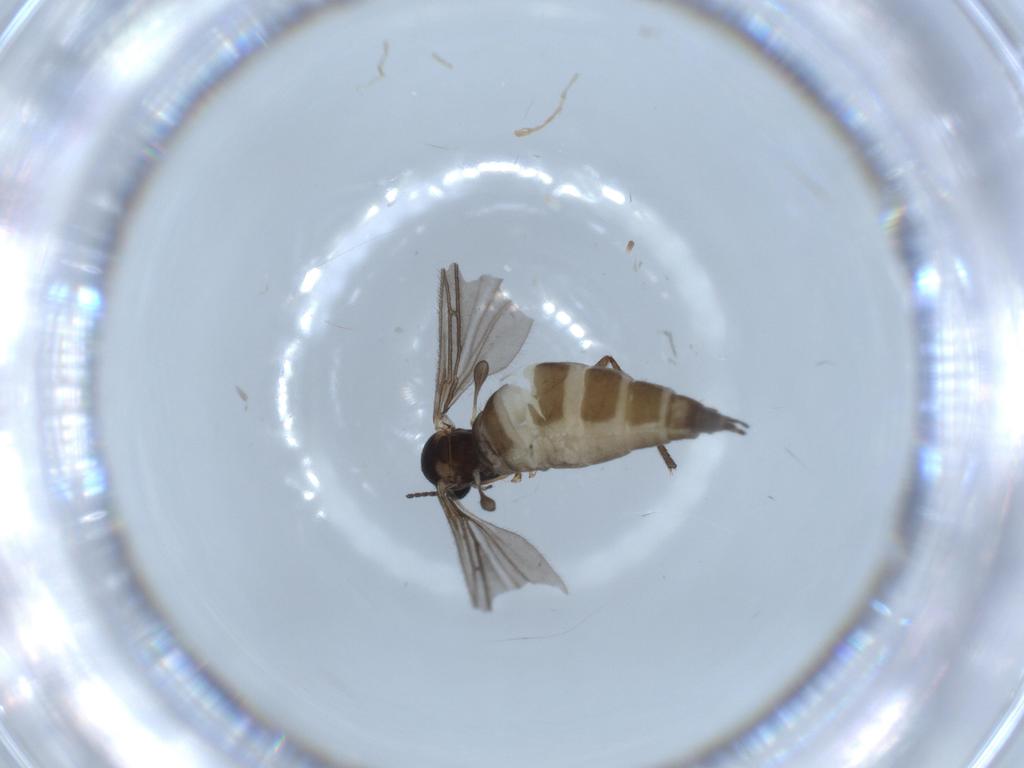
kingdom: Animalia
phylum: Arthropoda
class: Insecta
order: Diptera
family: Sciaridae
